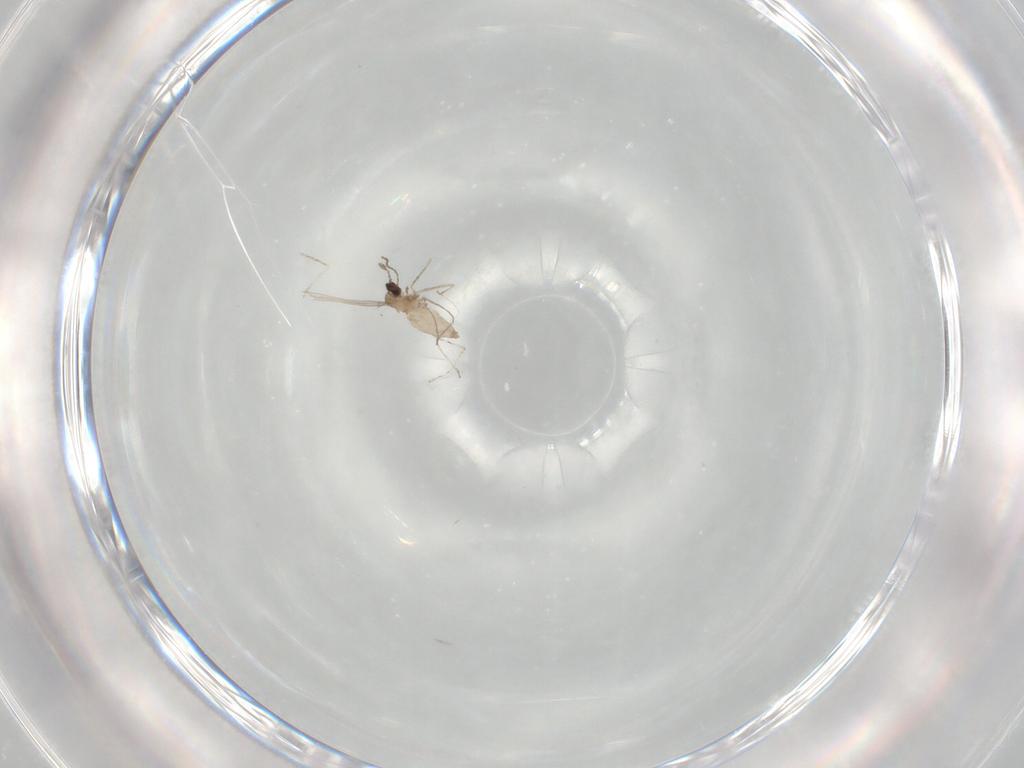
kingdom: Animalia
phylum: Arthropoda
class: Insecta
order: Diptera
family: Cecidomyiidae
